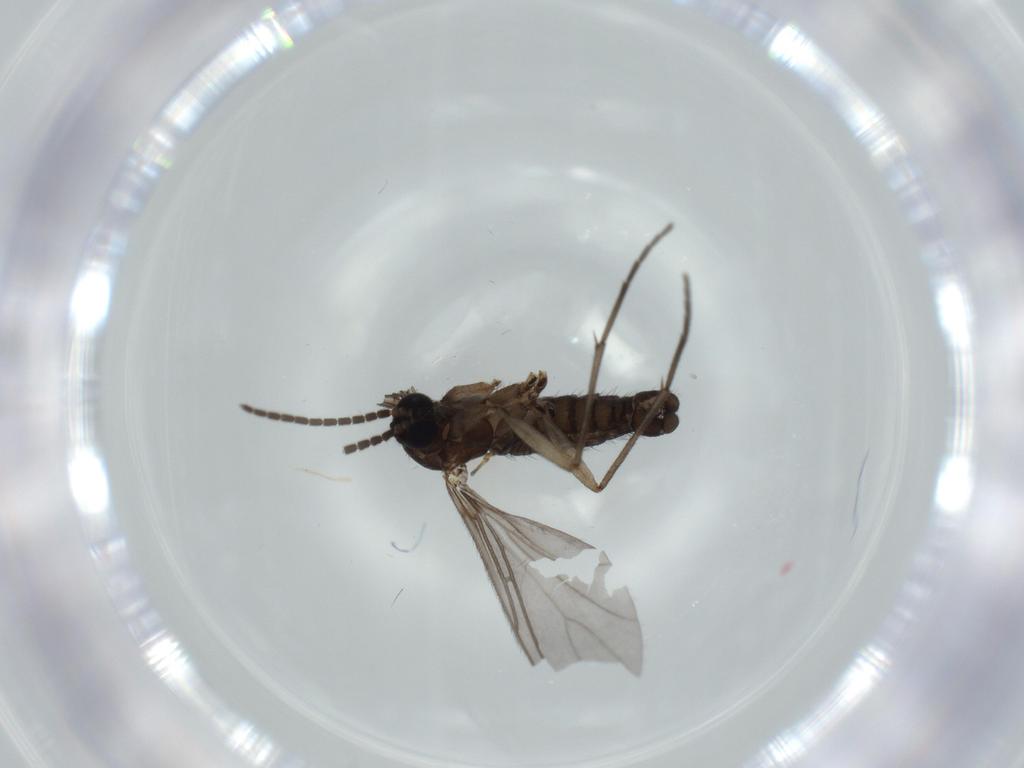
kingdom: Animalia
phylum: Arthropoda
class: Insecta
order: Diptera
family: Sciaridae
